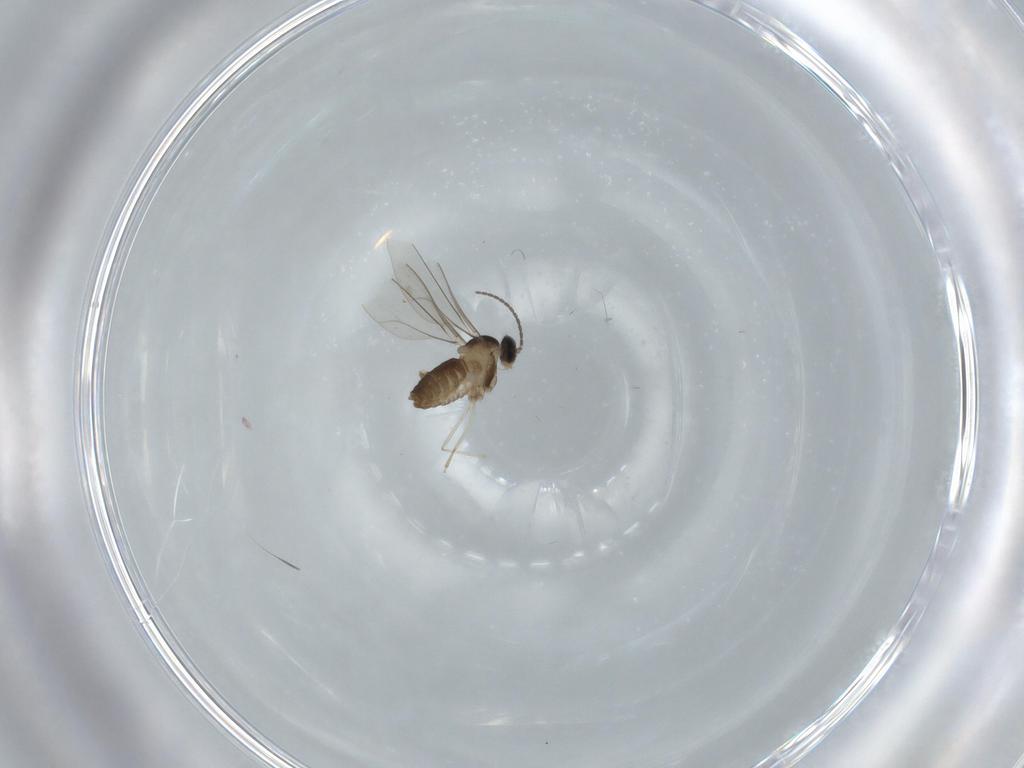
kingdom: Animalia
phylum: Arthropoda
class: Insecta
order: Diptera
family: Cecidomyiidae
